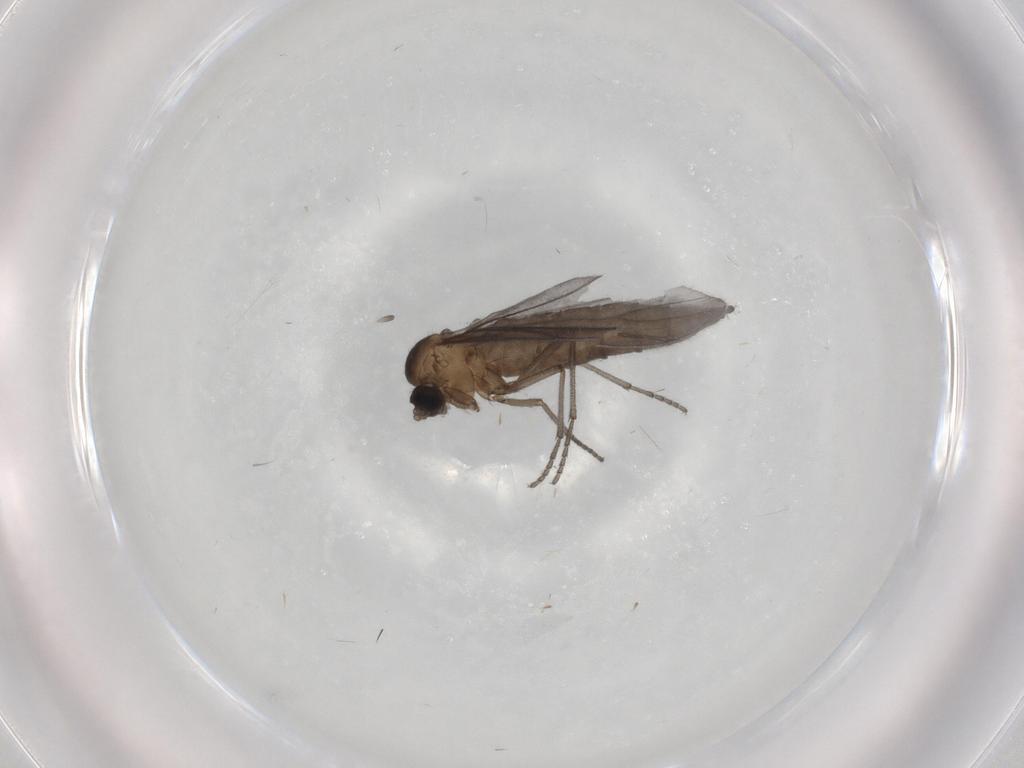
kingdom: Animalia
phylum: Arthropoda
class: Insecta
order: Diptera
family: Sciaridae
